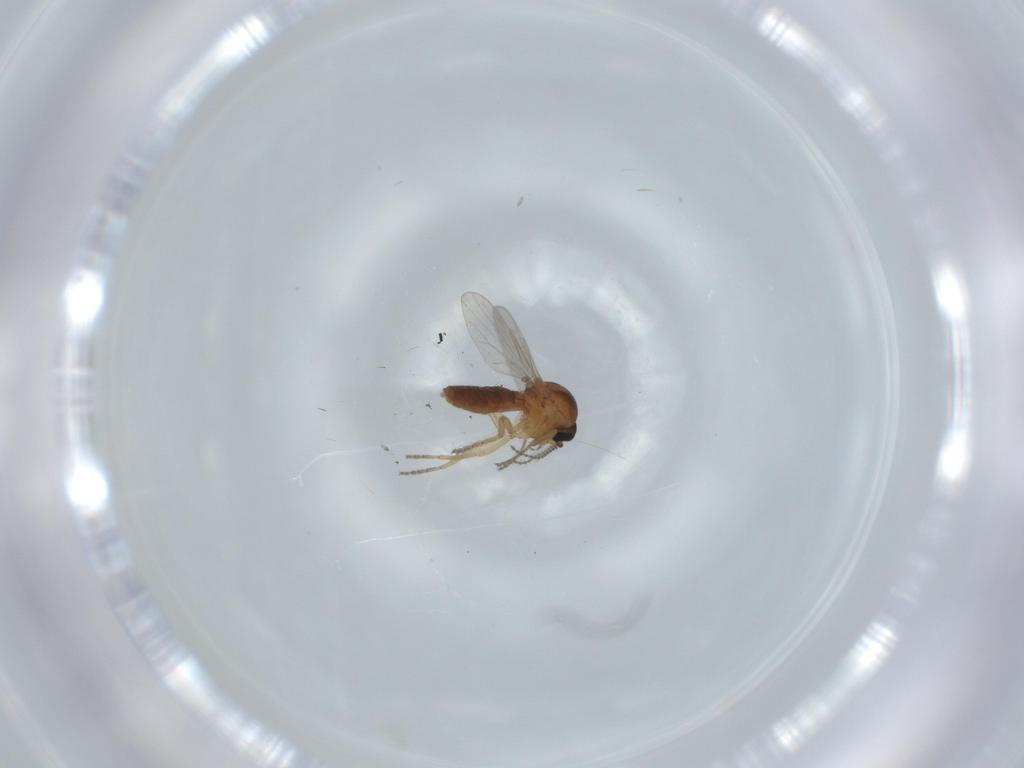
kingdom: Animalia
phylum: Arthropoda
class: Insecta
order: Diptera
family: Ceratopogonidae
